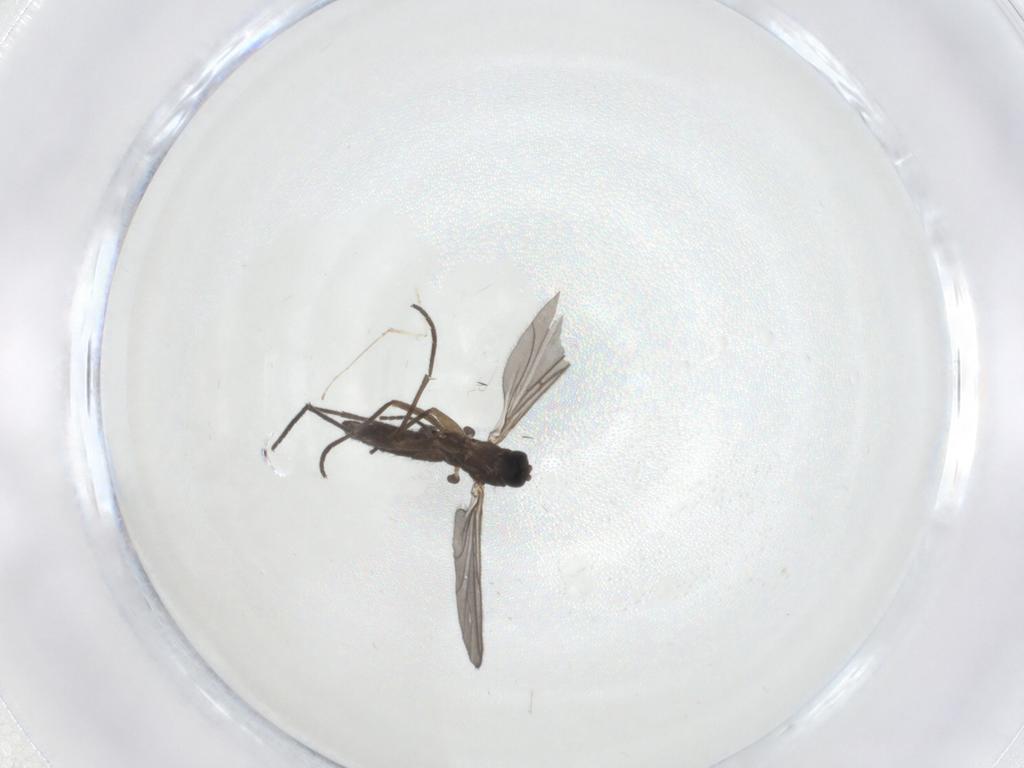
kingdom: Animalia
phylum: Arthropoda
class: Insecta
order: Diptera
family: Sciaridae
